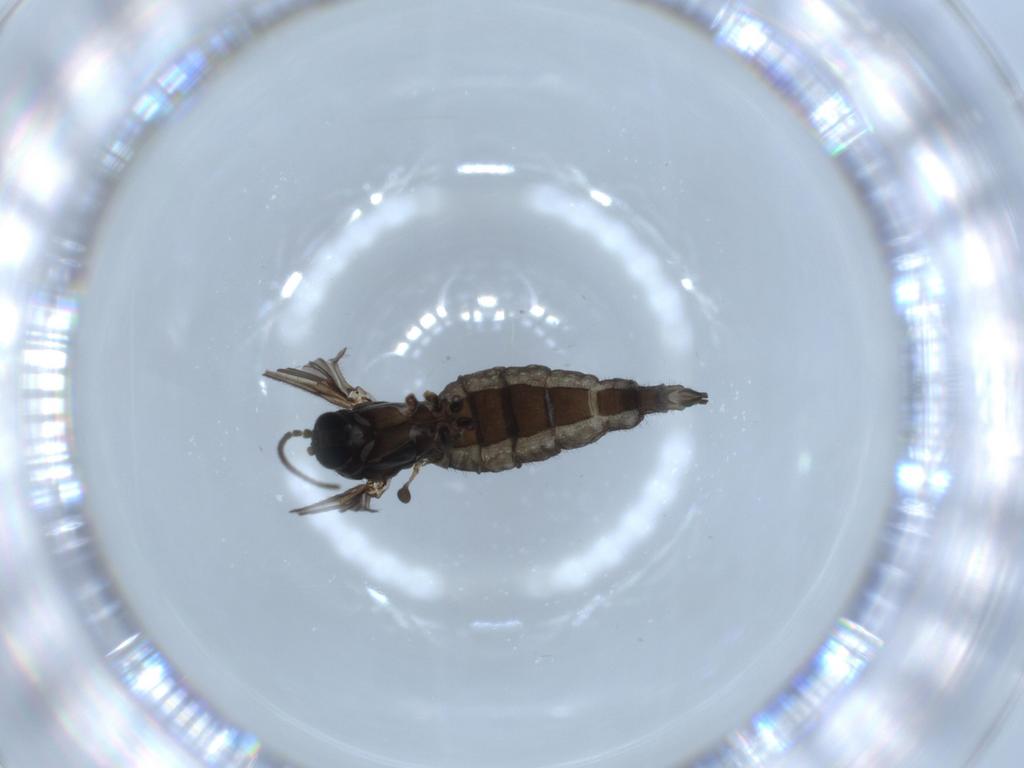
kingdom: Animalia
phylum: Arthropoda
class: Insecta
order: Diptera
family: Sciaridae
